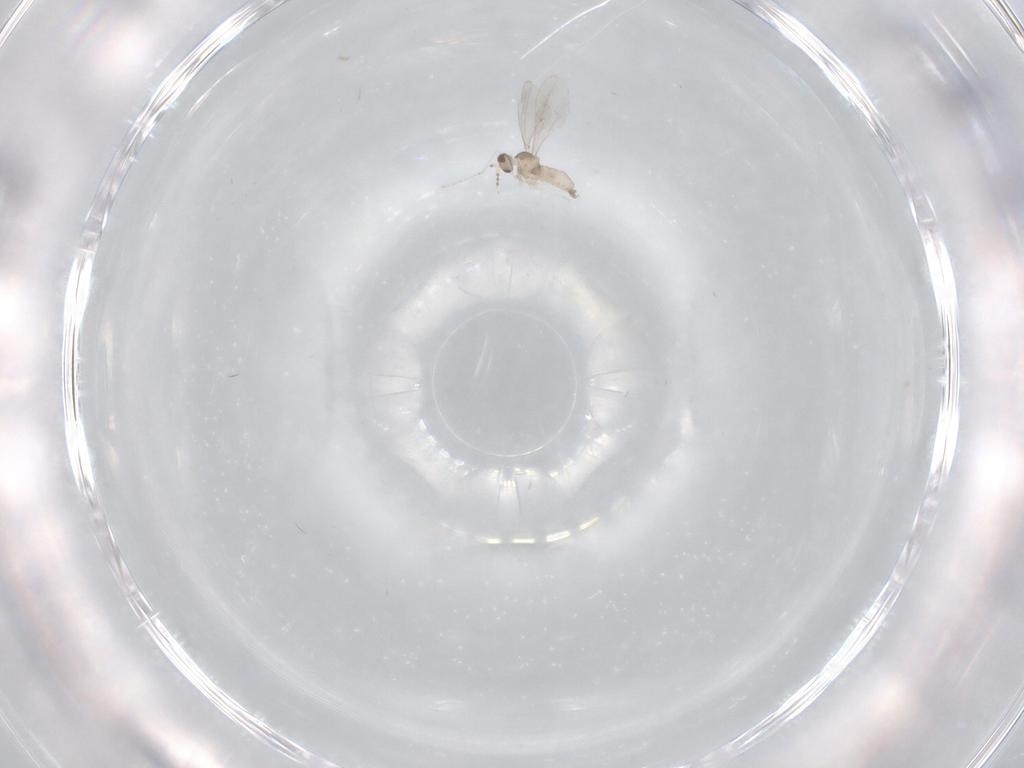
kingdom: Animalia
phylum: Arthropoda
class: Insecta
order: Diptera
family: Cecidomyiidae
